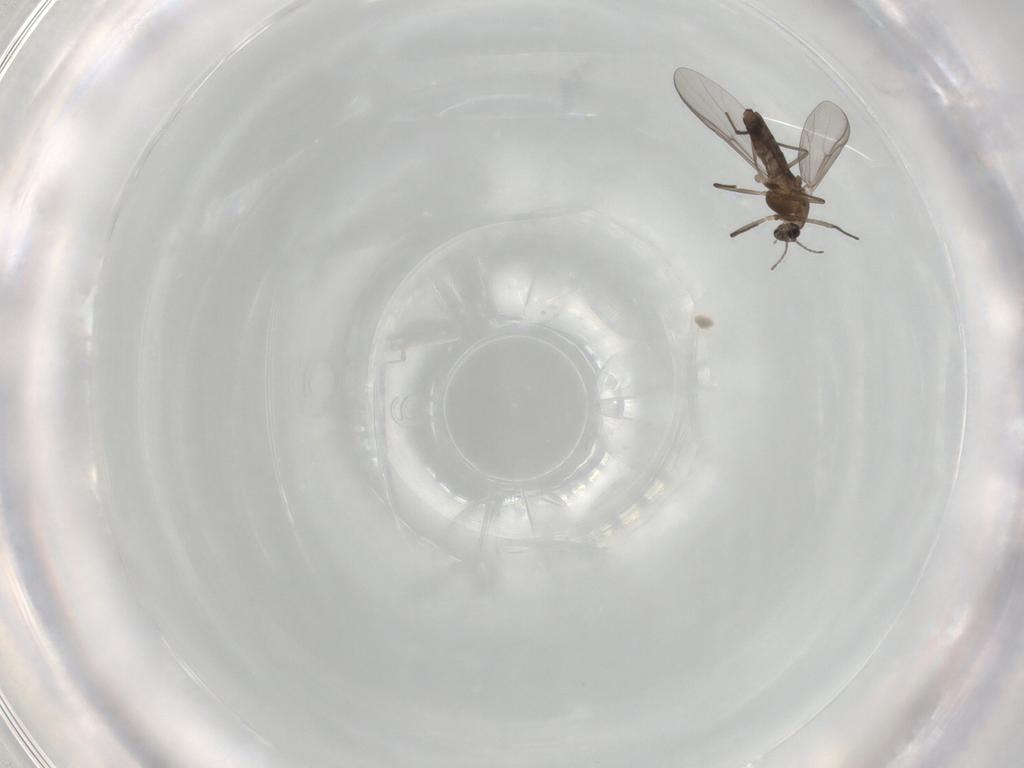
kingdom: Animalia
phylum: Arthropoda
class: Insecta
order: Diptera
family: Chironomidae
